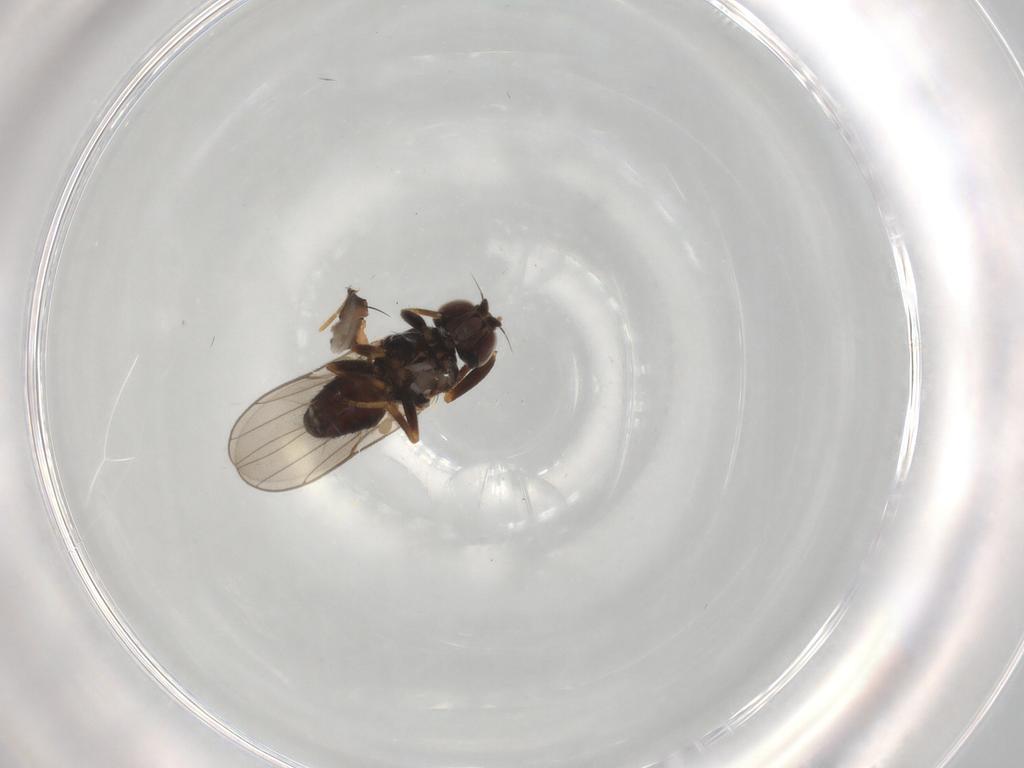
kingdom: Animalia
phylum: Arthropoda
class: Insecta
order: Diptera
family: Chloropidae
